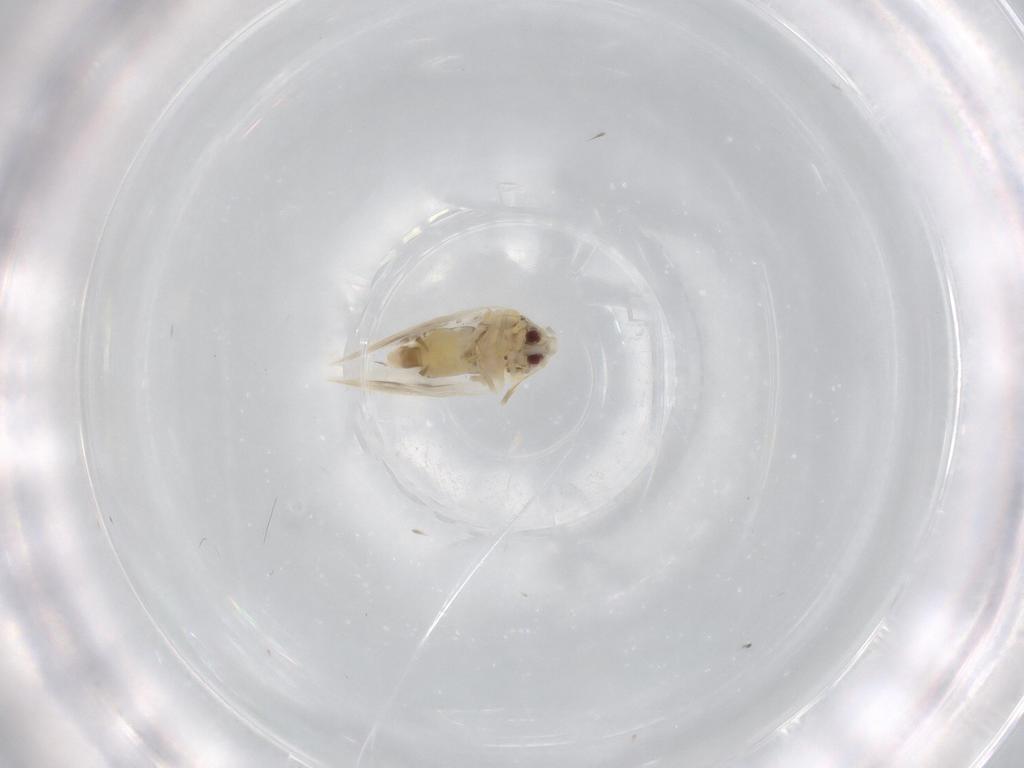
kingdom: Animalia
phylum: Arthropoda
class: Insecta
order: Hemiptera
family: Aleyrodidae
